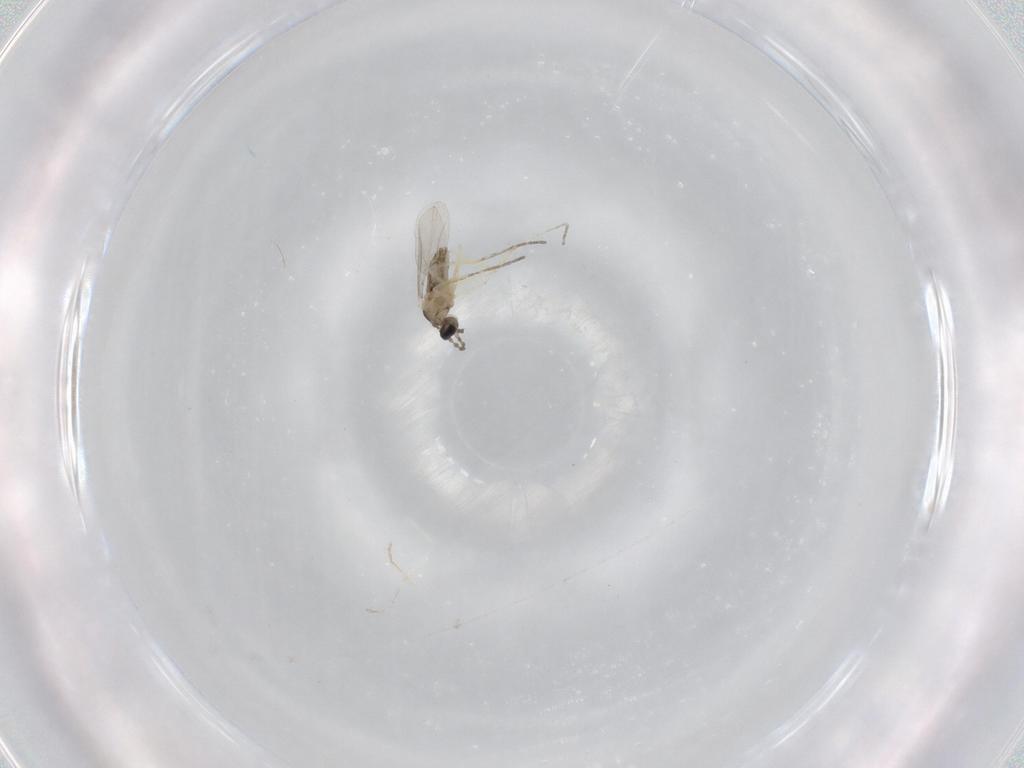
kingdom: Animalia
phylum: Arthropoda
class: Insecta
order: Diptera
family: Cecidomyiidae
